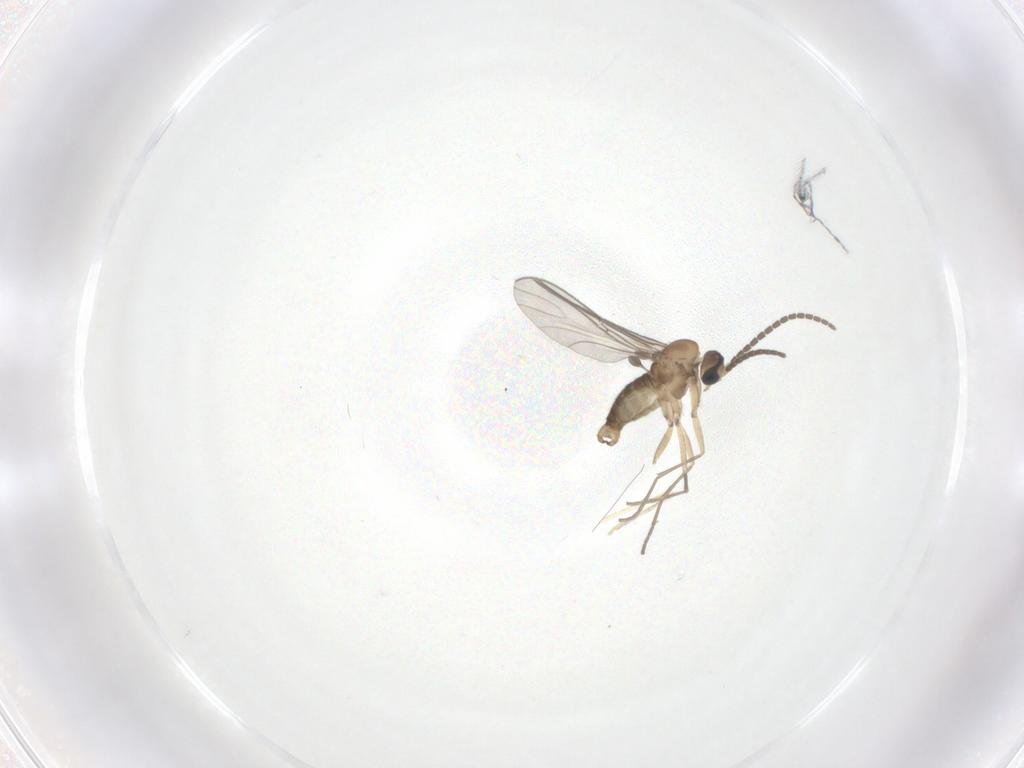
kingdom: Animalia
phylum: Arthropoda
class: Insecta
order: Diptera
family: Sciaridae
